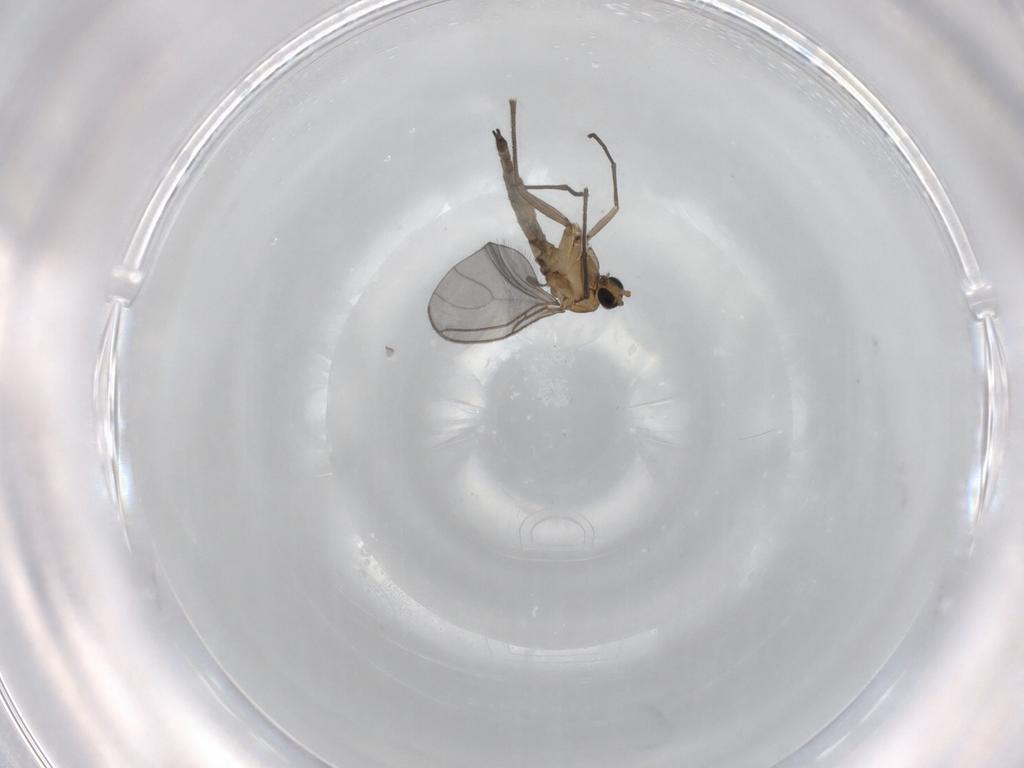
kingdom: Animalia
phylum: Arthropoda
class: Insecta
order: Diptera
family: Sciaridae
